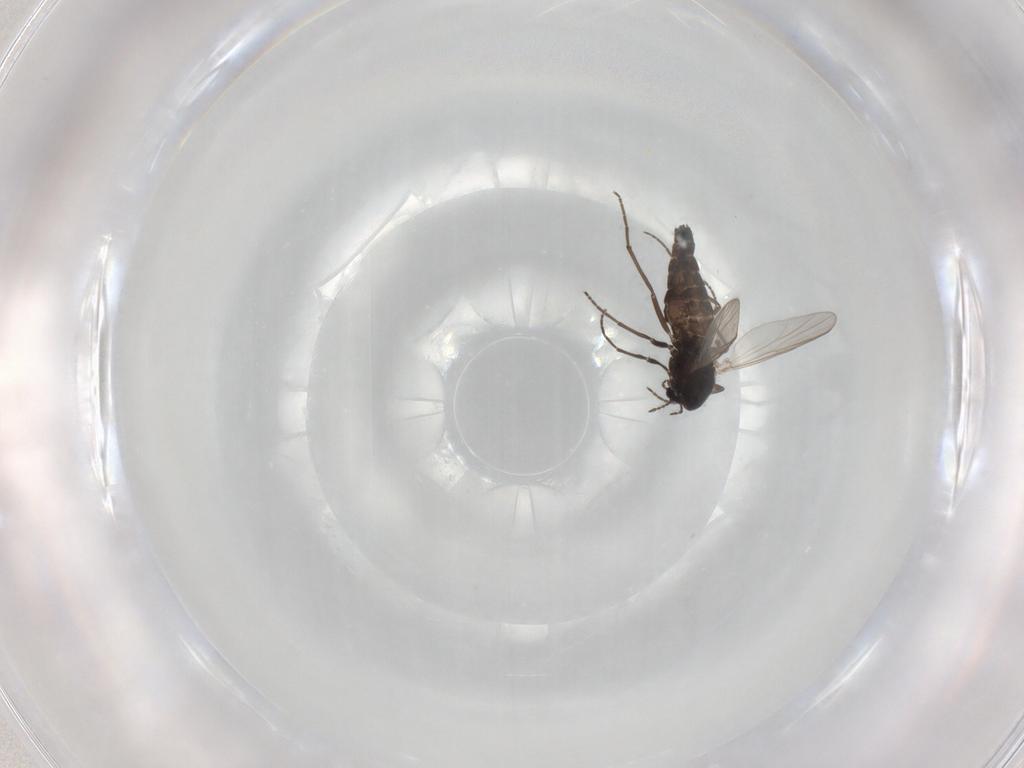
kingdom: Animalia
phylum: Arthropoda
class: Insecta
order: Diptera
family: Chironomidae
